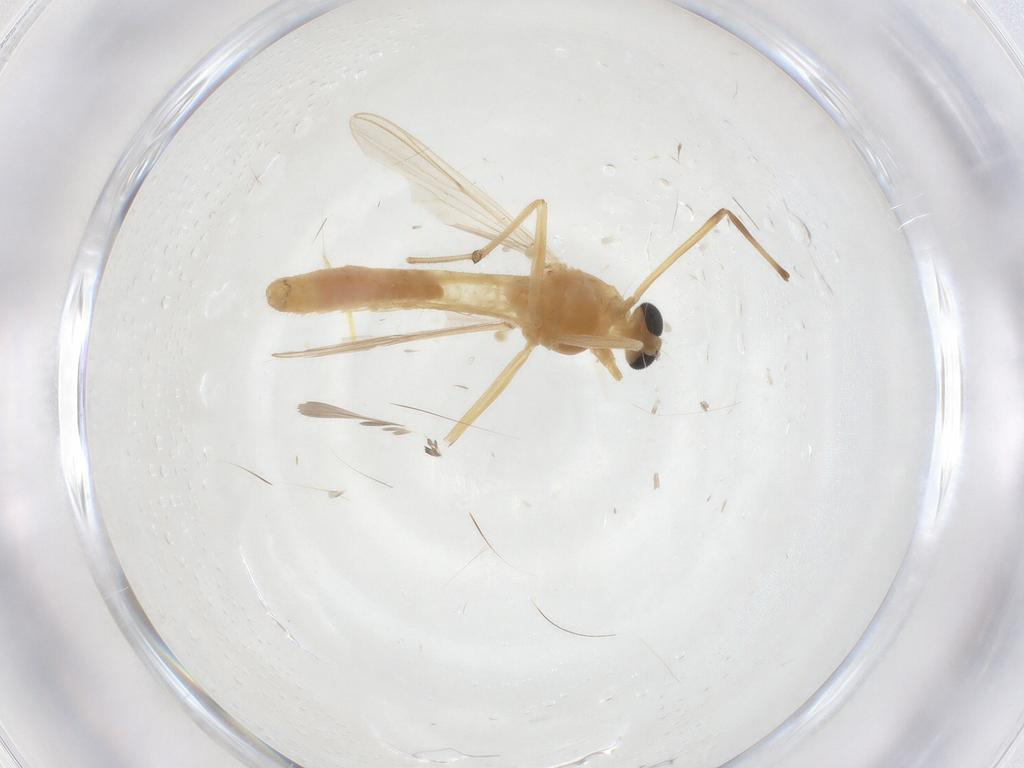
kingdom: Animalia
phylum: Arthropoda
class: Insecta
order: Diptera
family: Chironomidae
